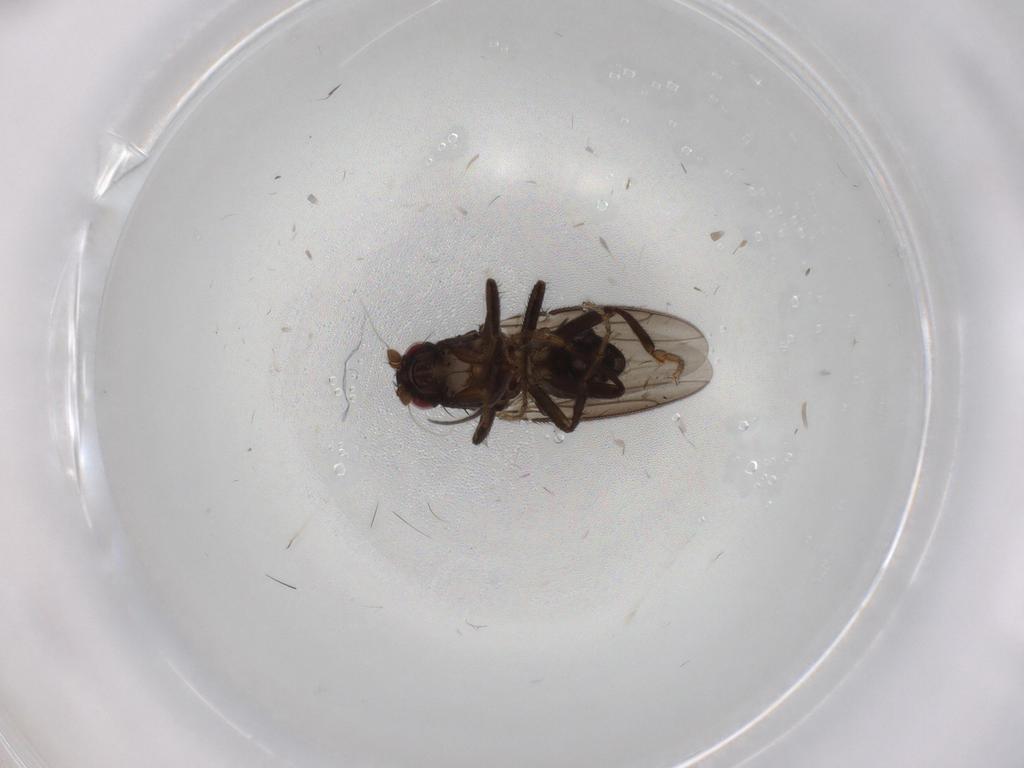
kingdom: Animalia
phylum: Arthropoda
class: Insecta
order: Diptera
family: Sphaeroceridae
